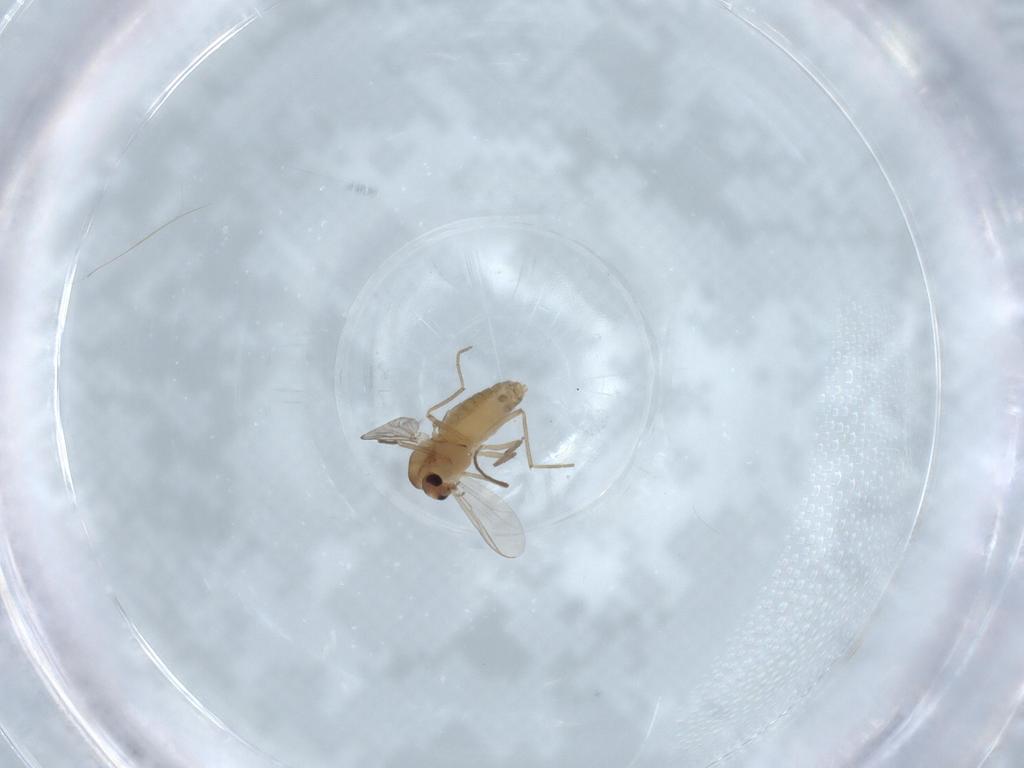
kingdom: Animalia
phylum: Arthropoda
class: Insecta
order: Diptera
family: Chironomidae
